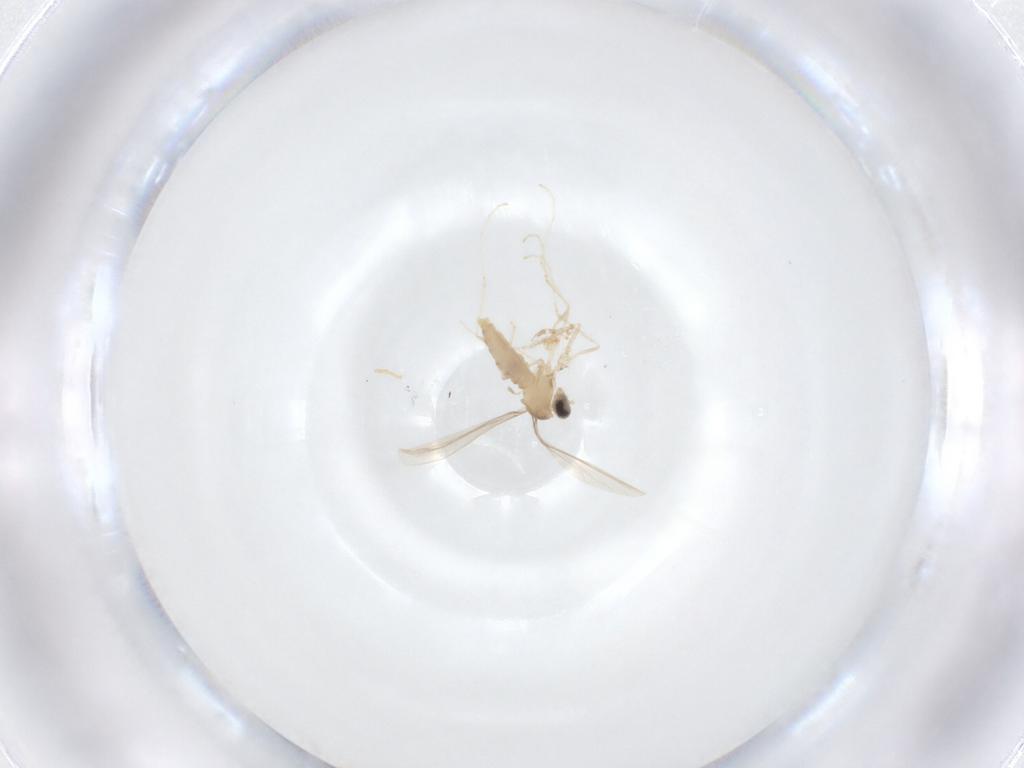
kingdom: Animalia
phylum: Arthropoda
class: Insecta
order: Diptera
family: Cecidomyiidae
